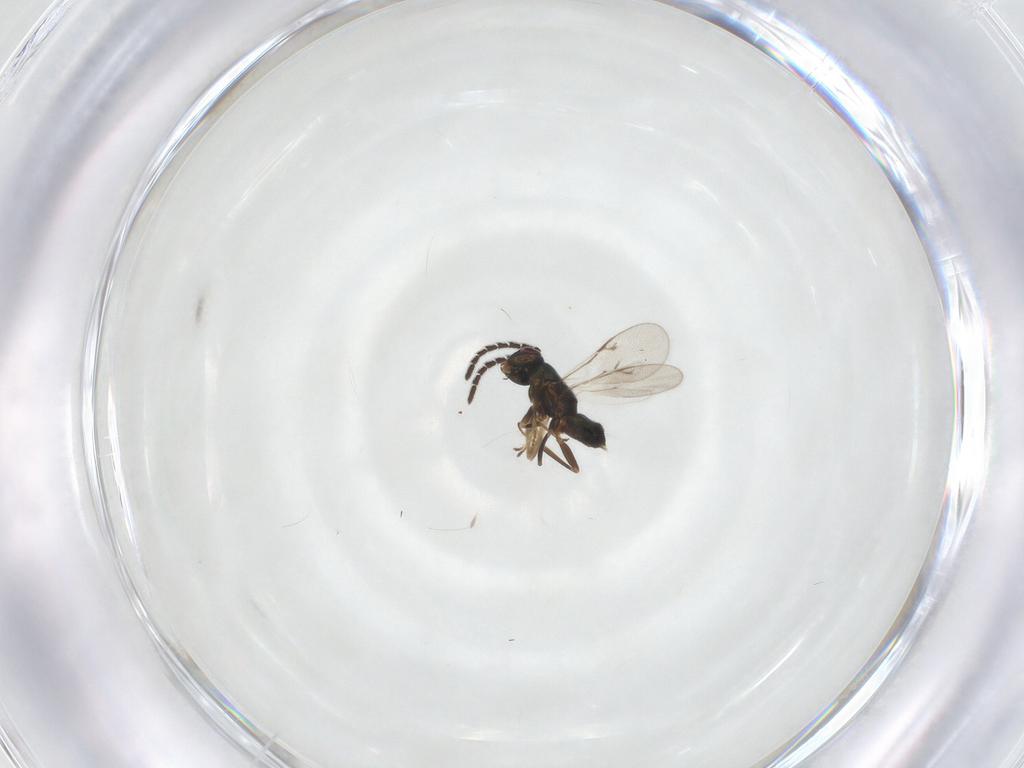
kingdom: Animalia
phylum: Arthropoda
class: Insecta
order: Hymenoptera
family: Encyrtidae
